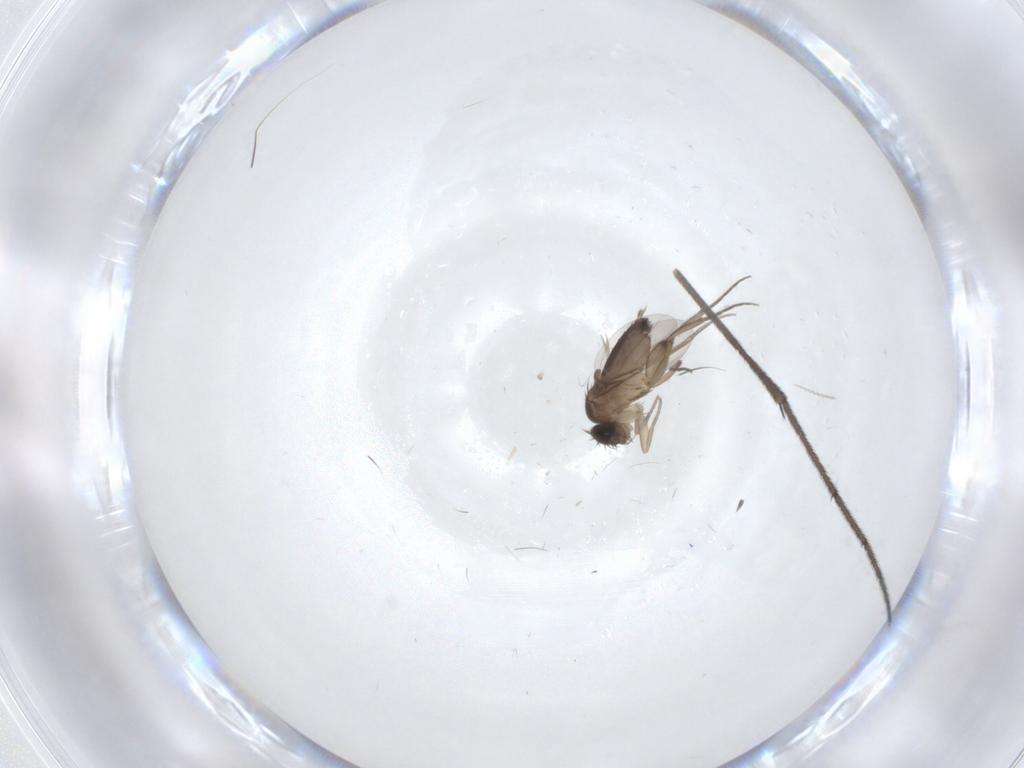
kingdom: Animalia
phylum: Arthropoda
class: Insecta
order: Diptera
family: Phoridae
